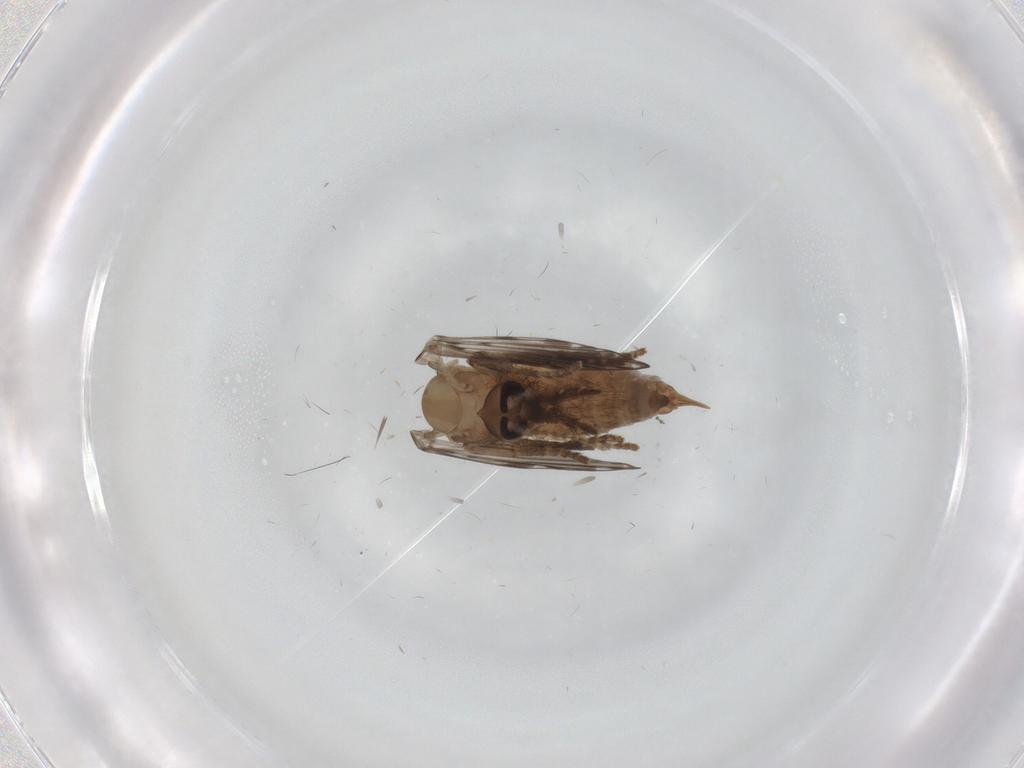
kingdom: Animalia
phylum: Arthropoda
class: Insecta
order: Diptera
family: Psychodidae
